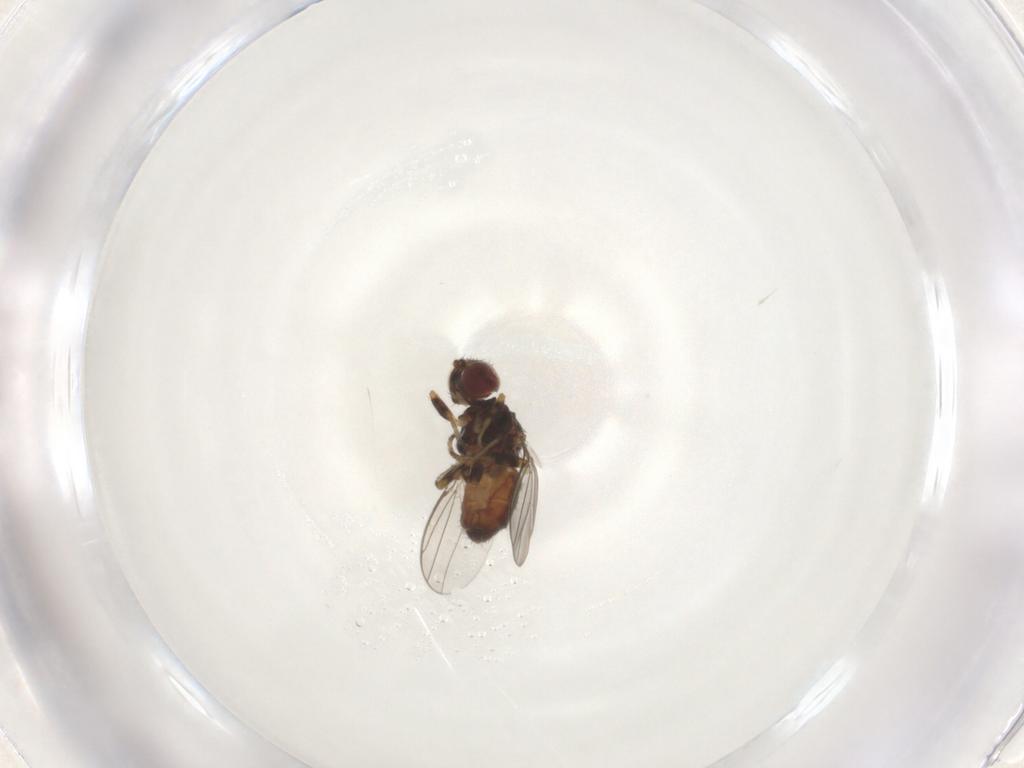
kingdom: Animalia
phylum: Arthropoda
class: Insecta
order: Diptera
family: Chloropidae
